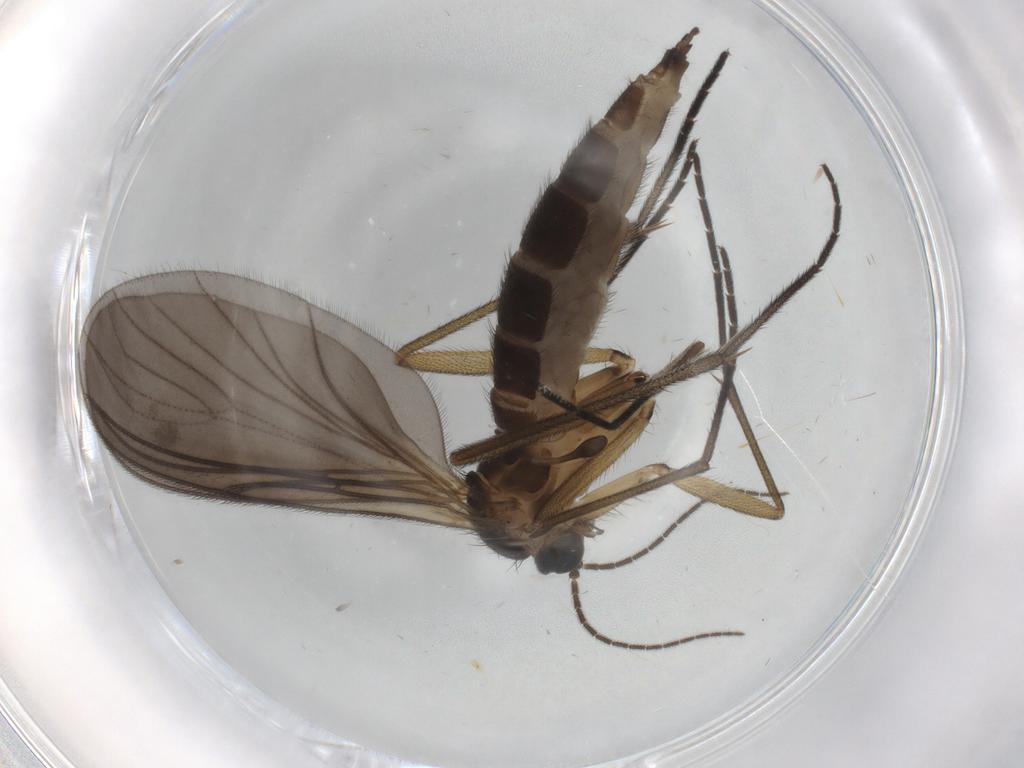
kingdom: Animalia
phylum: Arthropoda
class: Insecta
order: Diptera
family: Sciaridae
